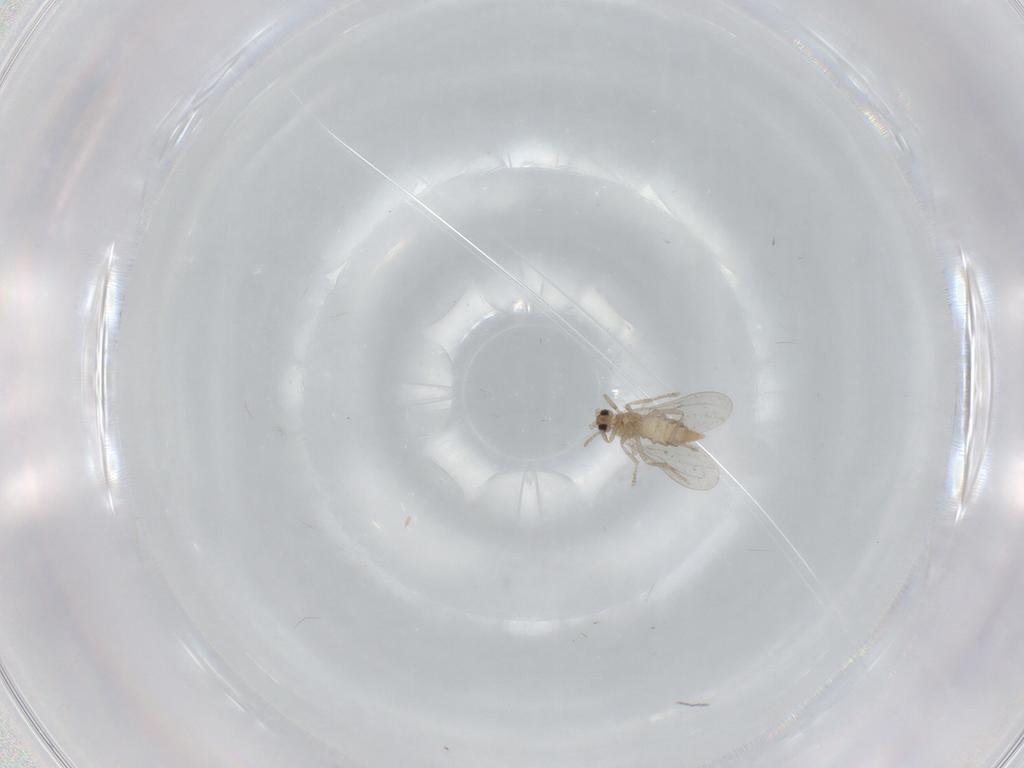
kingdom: Animalia
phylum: Arthropoda
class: Insecta
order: Diptera
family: Cecidomyiidae
